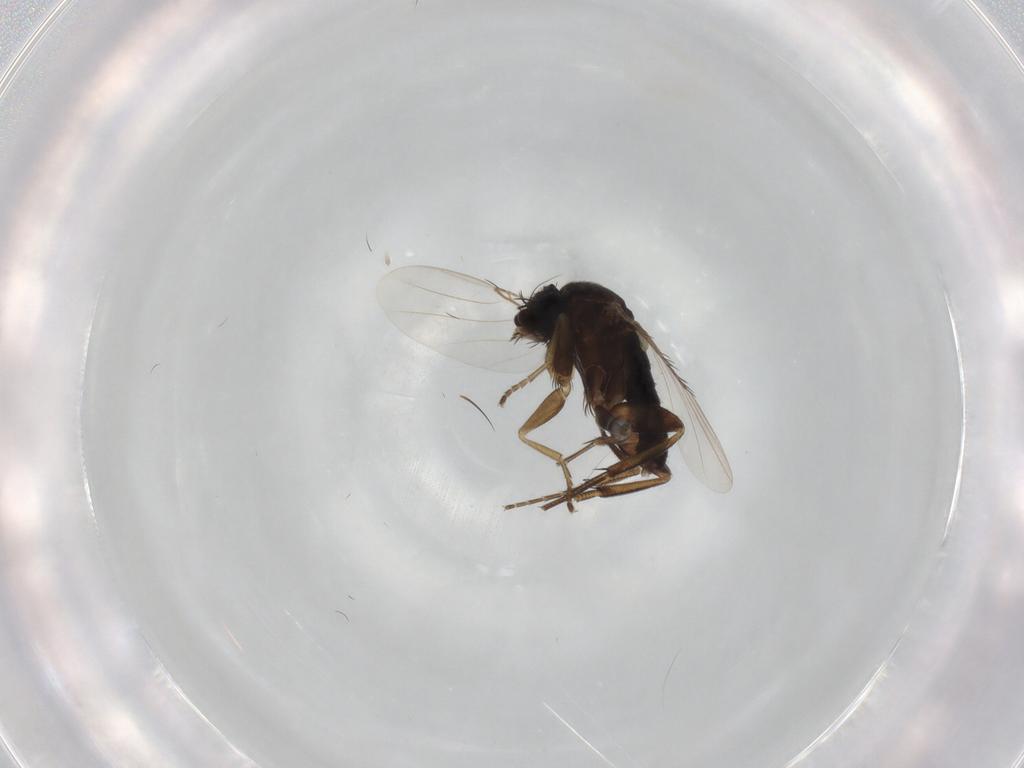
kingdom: Animalia
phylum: Arthropoda
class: Insecta
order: Diptera
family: Phoridae
